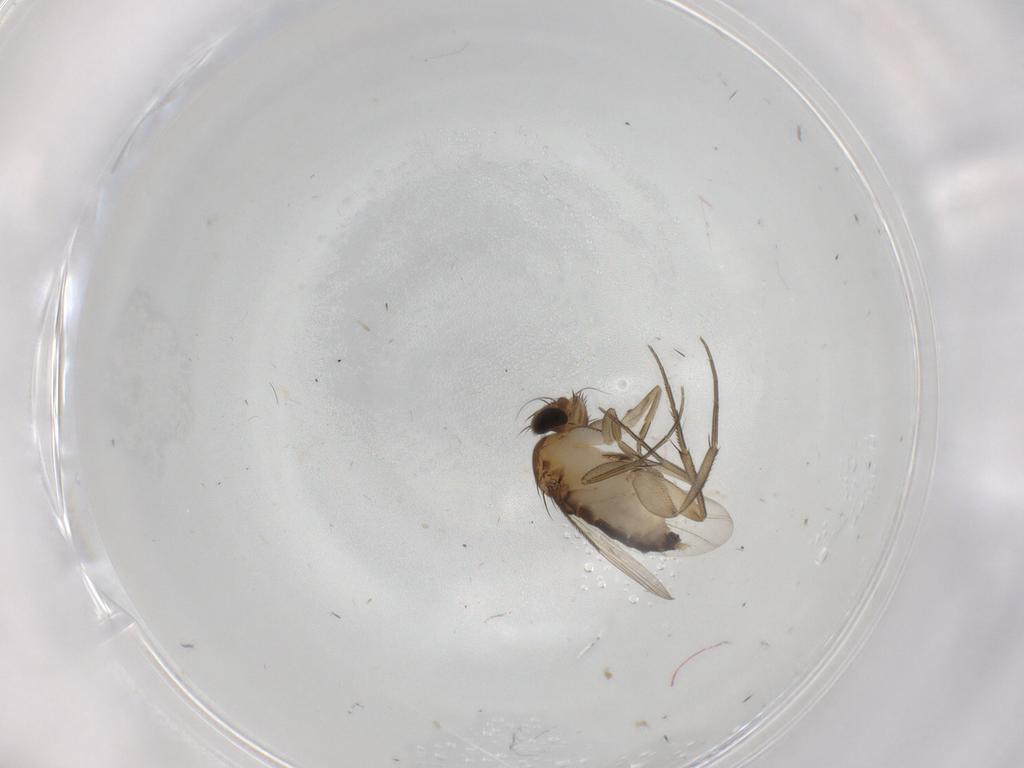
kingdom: Animalia
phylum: Arthropoda
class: Insecta
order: Diptera
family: Phoridae
